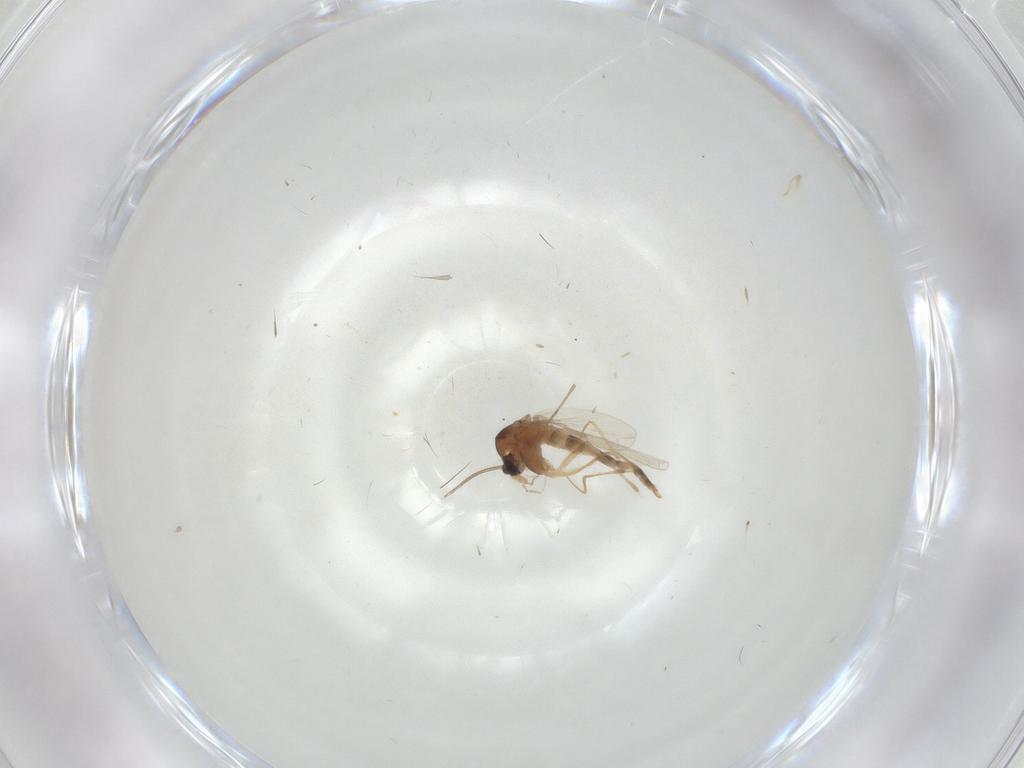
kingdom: Animalia
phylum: Arthropoda
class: Insecta
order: Diptera
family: Chironomidae
